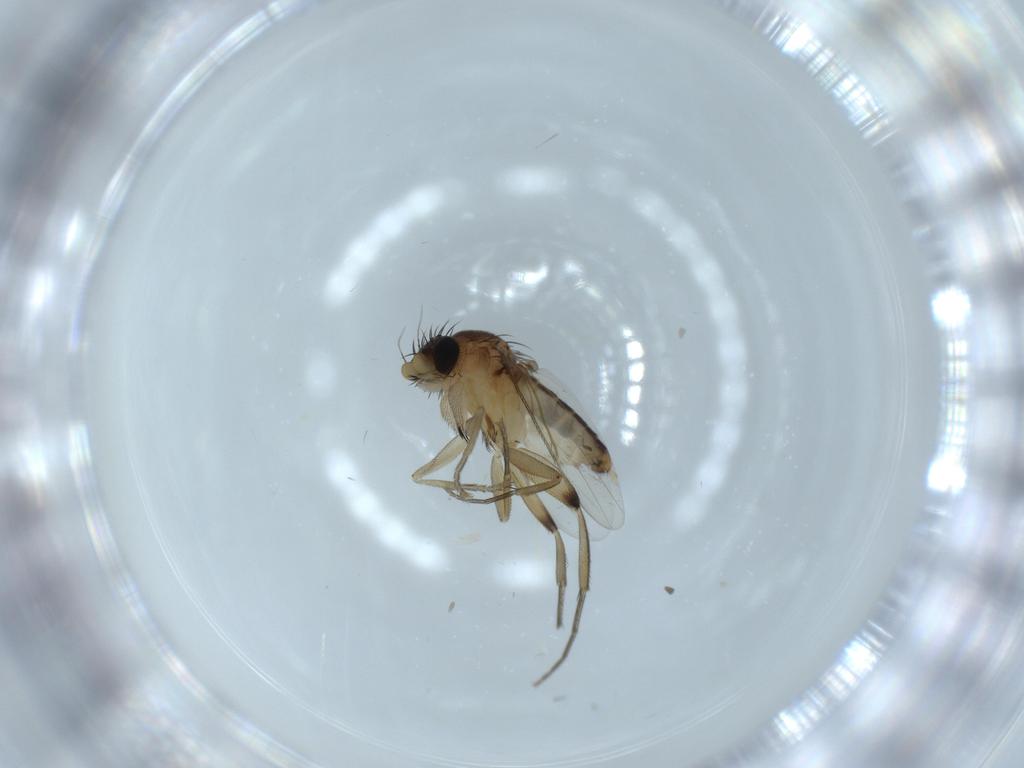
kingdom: Animalia
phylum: Arthropoda
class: Insecta
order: Diptera
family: Phoridae
